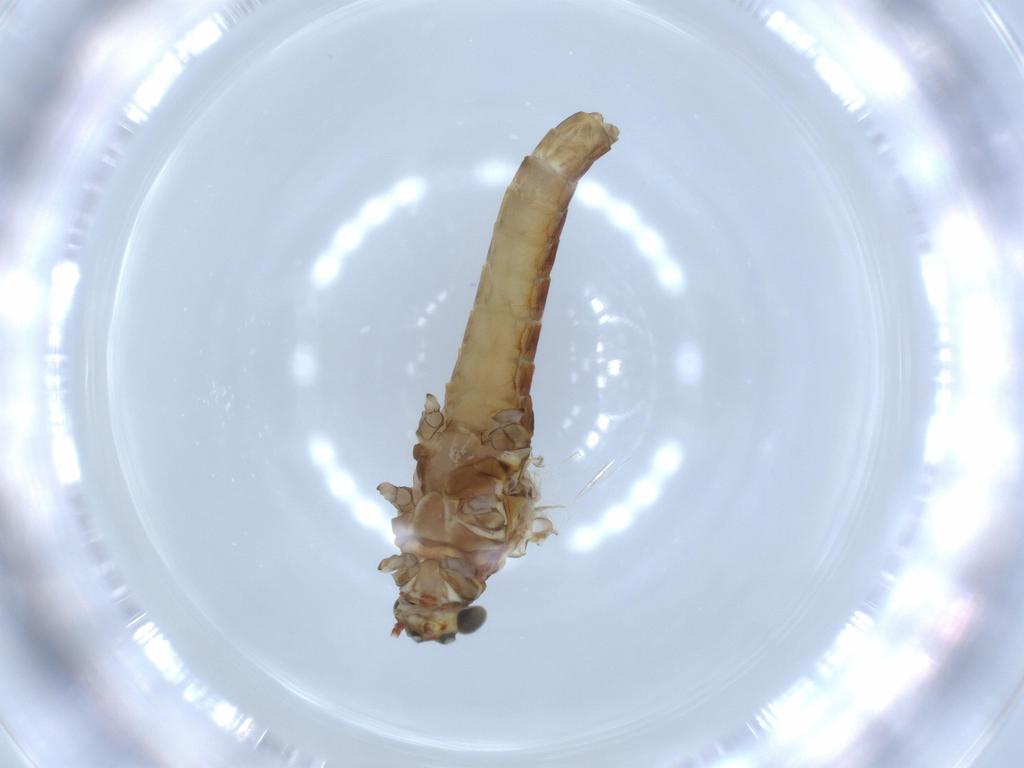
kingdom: Animalia
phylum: Arthropoda
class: Insecta
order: Ephemeroptera
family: Baetidae
